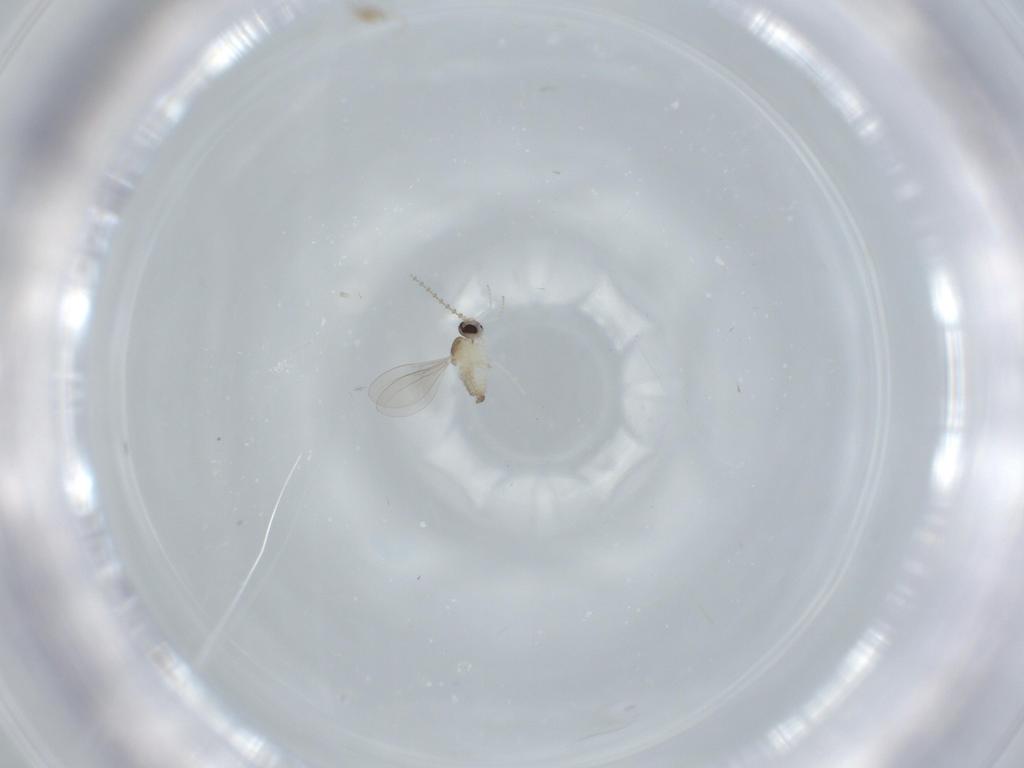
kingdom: Animalia
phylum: Arthropoda
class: Insecta
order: Diptera
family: Cecidomyiidae
